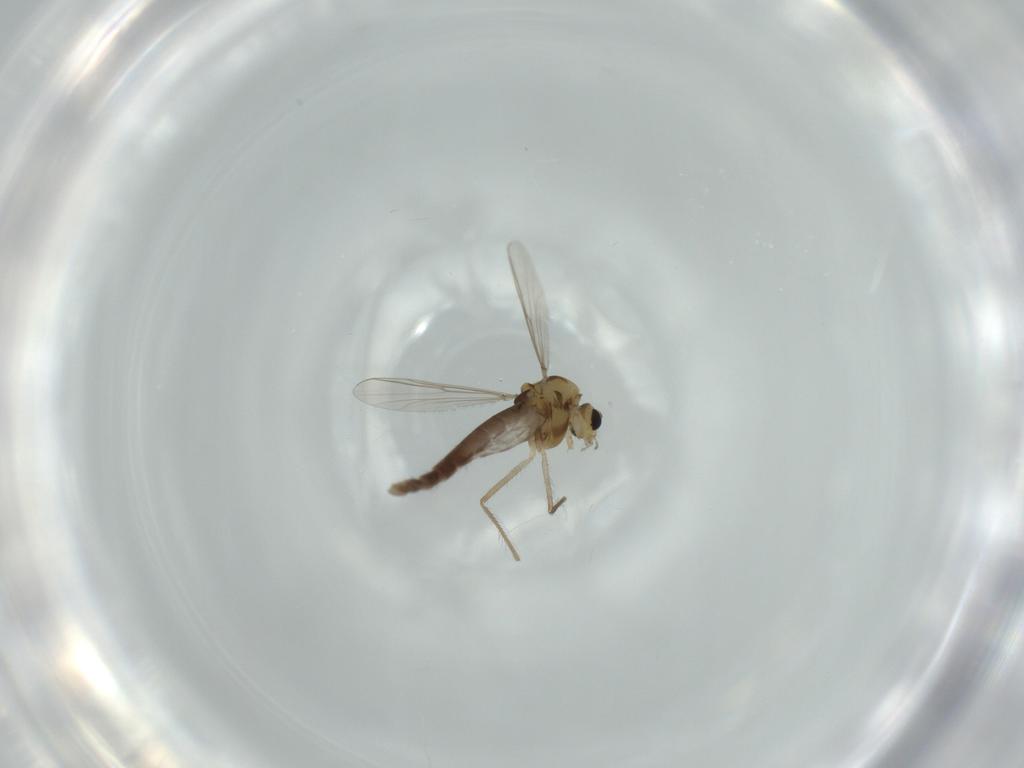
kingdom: Animalia
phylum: Arthropoda
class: Insecta
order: Diptera
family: Chironomidae
